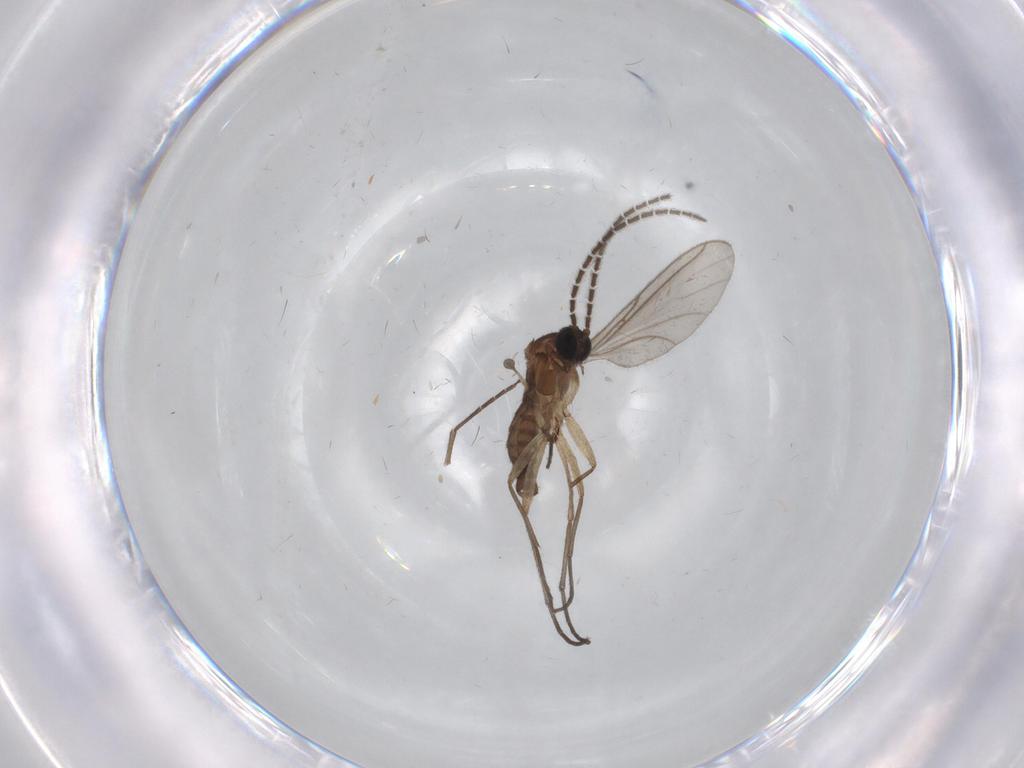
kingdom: Animalia
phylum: Arthropoda
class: Insecta
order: Diptera
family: Sciaridae
